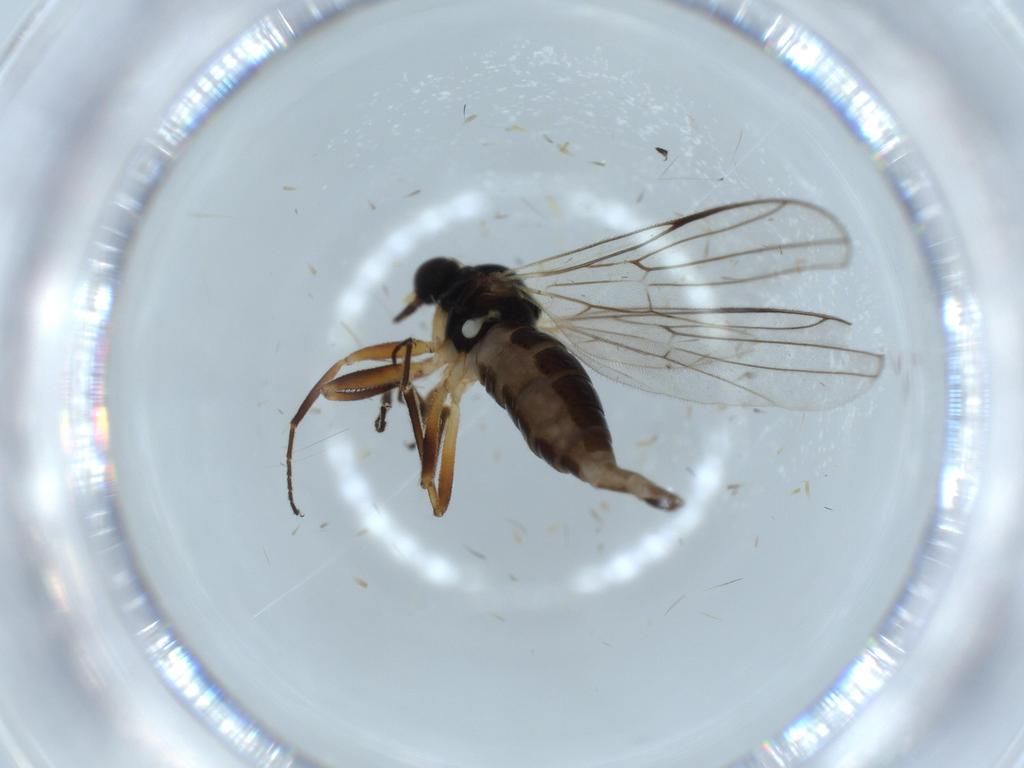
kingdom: Animalia
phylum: Arthropoda
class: Insecta
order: Diptera
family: Hybotidae
